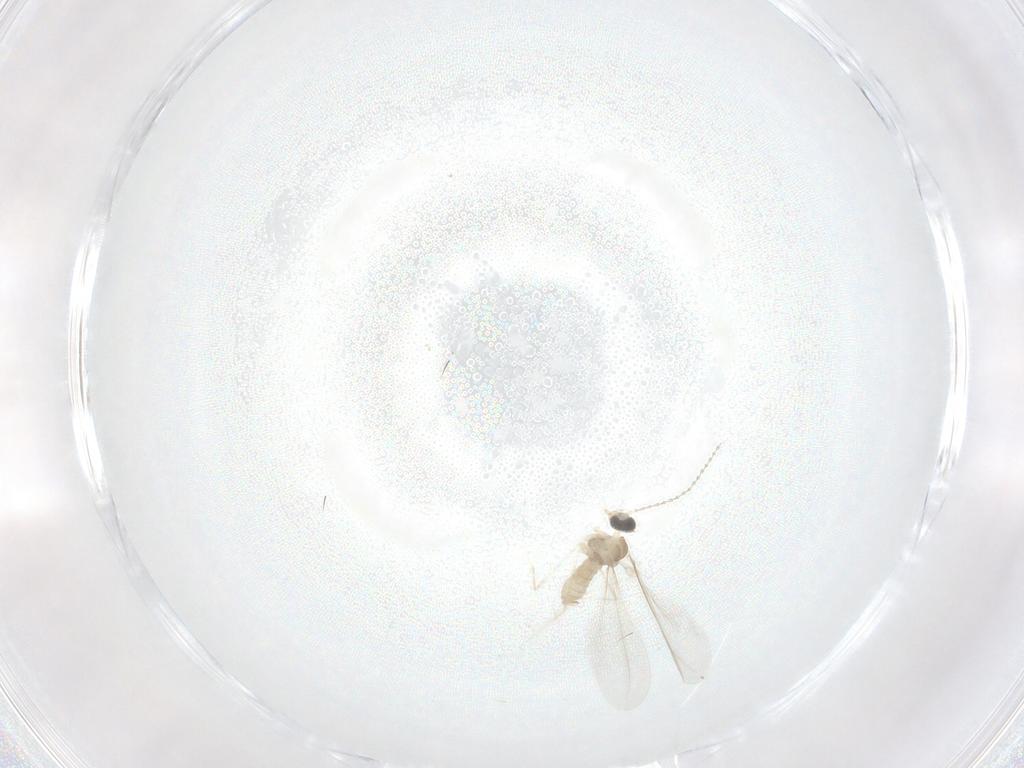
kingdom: Animalia
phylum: Arthropoda
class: Insecta
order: Diptera
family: Cecidomyiidae
